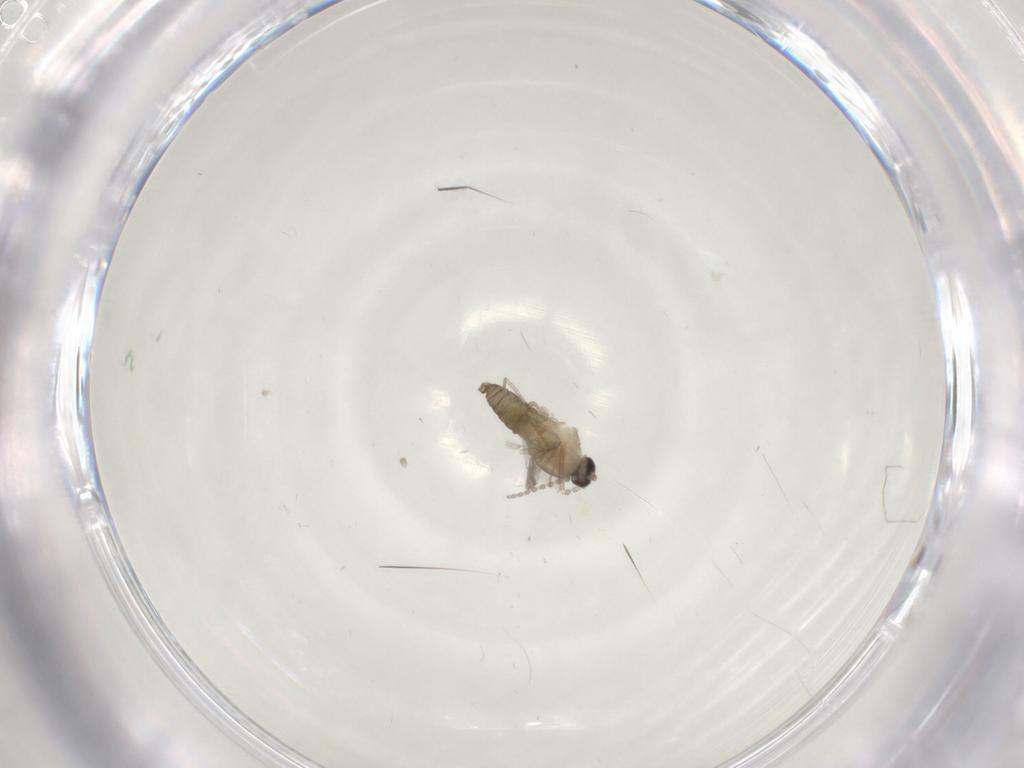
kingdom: Animalia
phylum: Arthropoda
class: Insecta
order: Diptera
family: Cecidomyiidae
